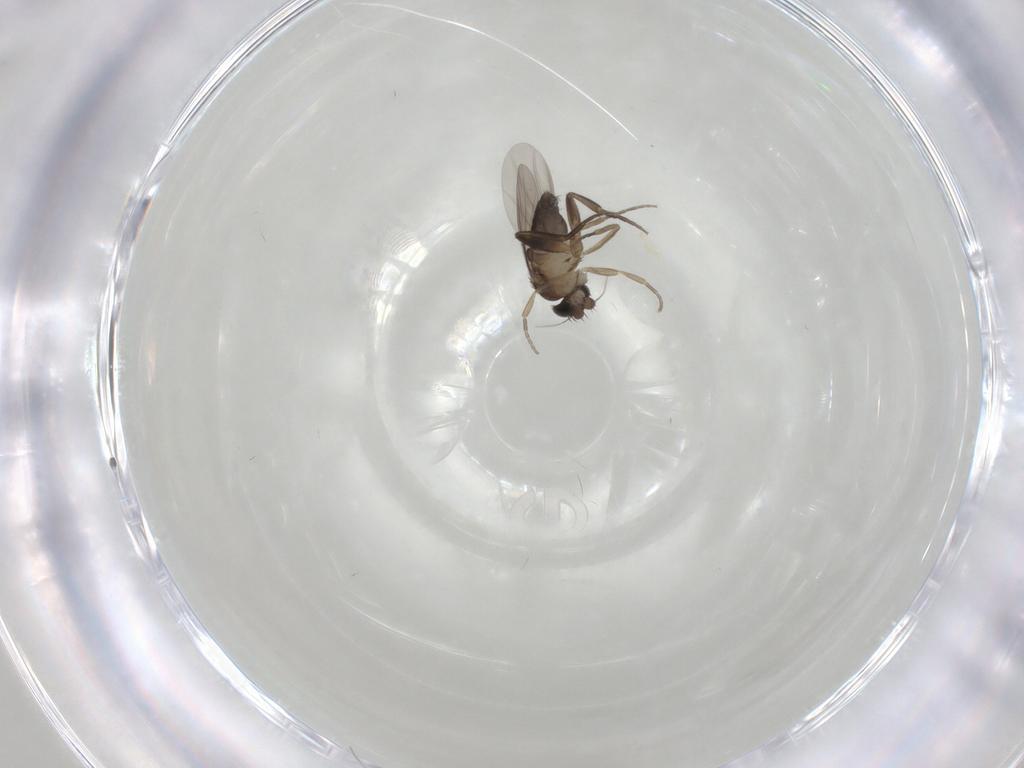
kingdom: Animalia
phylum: Arthropoda
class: Insecta
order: Diptera
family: Phoridae
